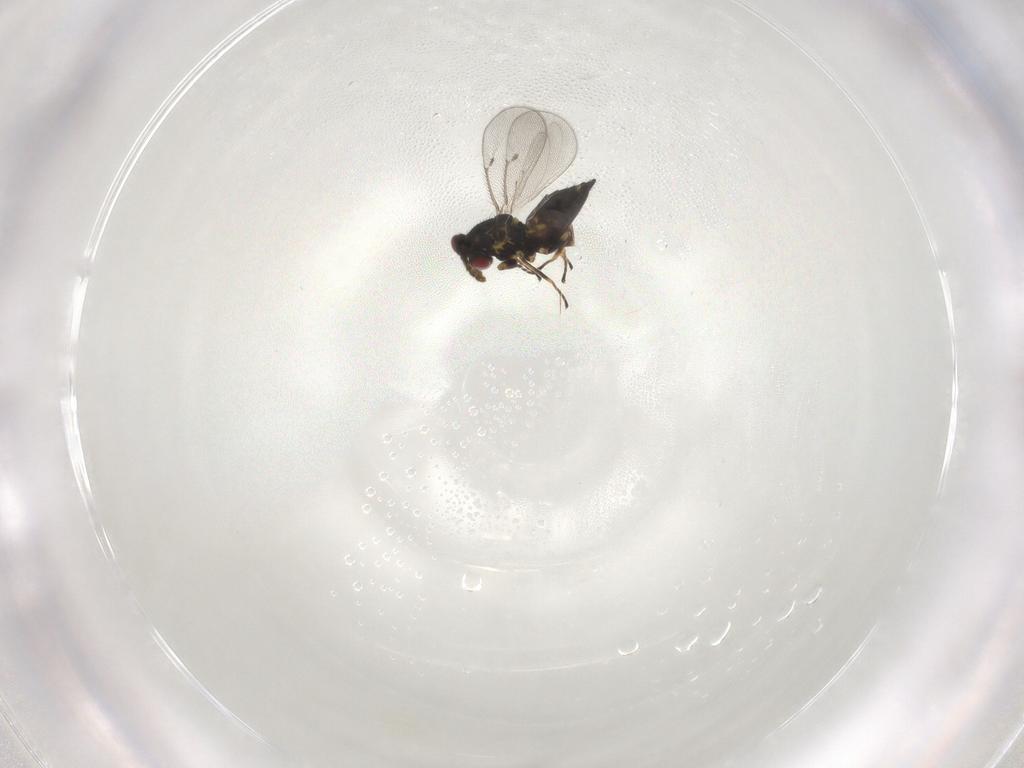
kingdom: Animalia
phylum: Arthropoda
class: Insecta
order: Hymenoptera
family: Eulophidae
